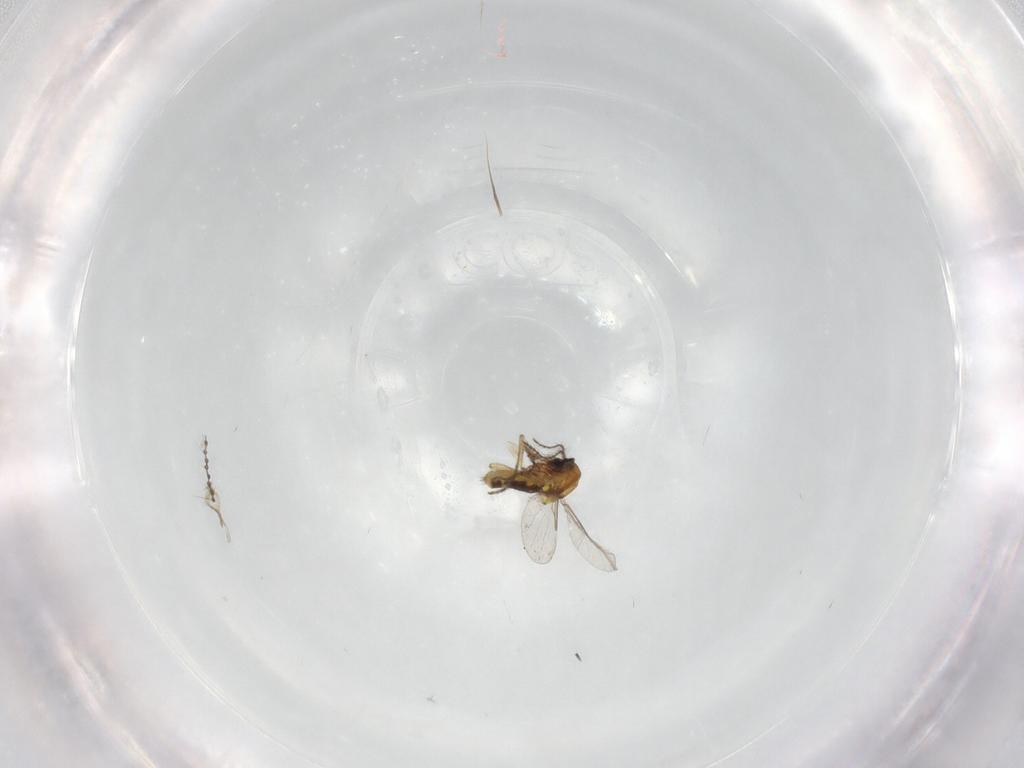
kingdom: Animalia
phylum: Arthropoda
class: Insecta
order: Diptera
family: Ceratopogonidae
